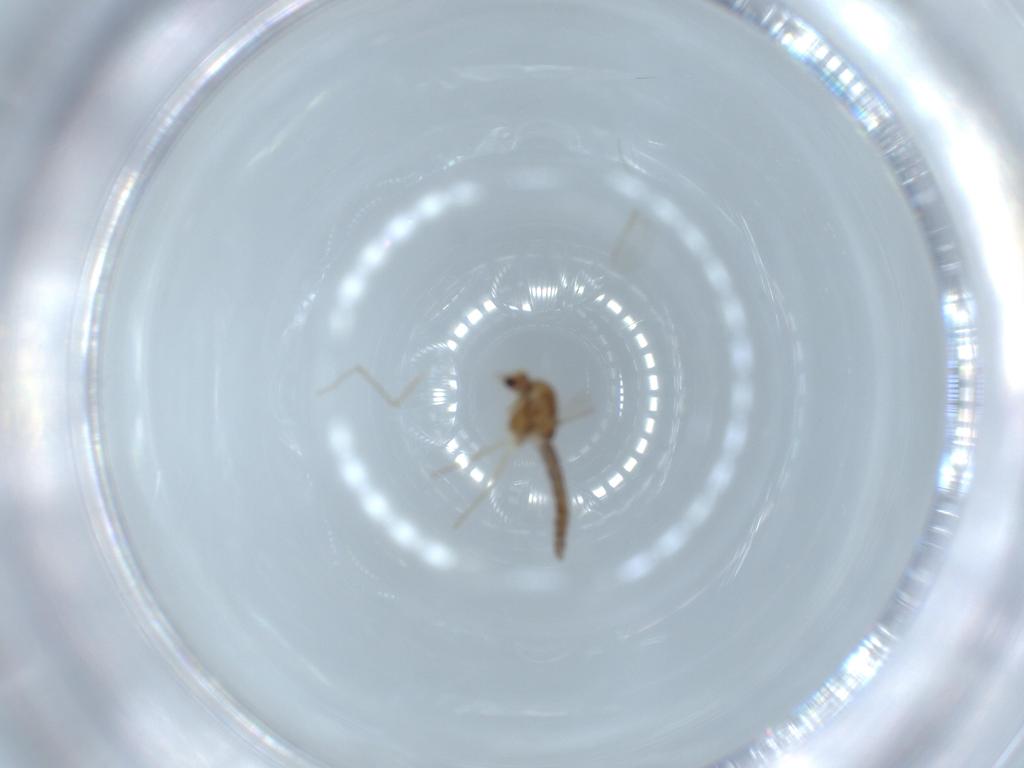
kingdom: Animalia
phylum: Arthropoda
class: Insecta
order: Diptera
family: Chironomidae
